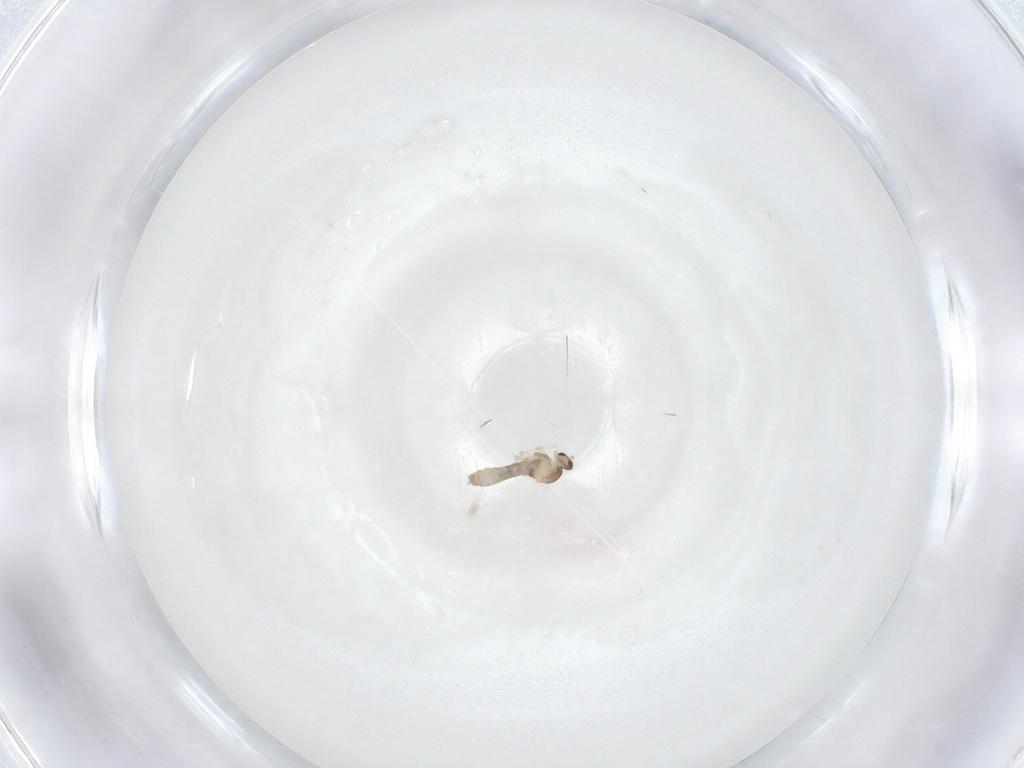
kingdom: Animalia
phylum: Arthropoda
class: Insecta
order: Diptera
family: Cecidomyiidae
